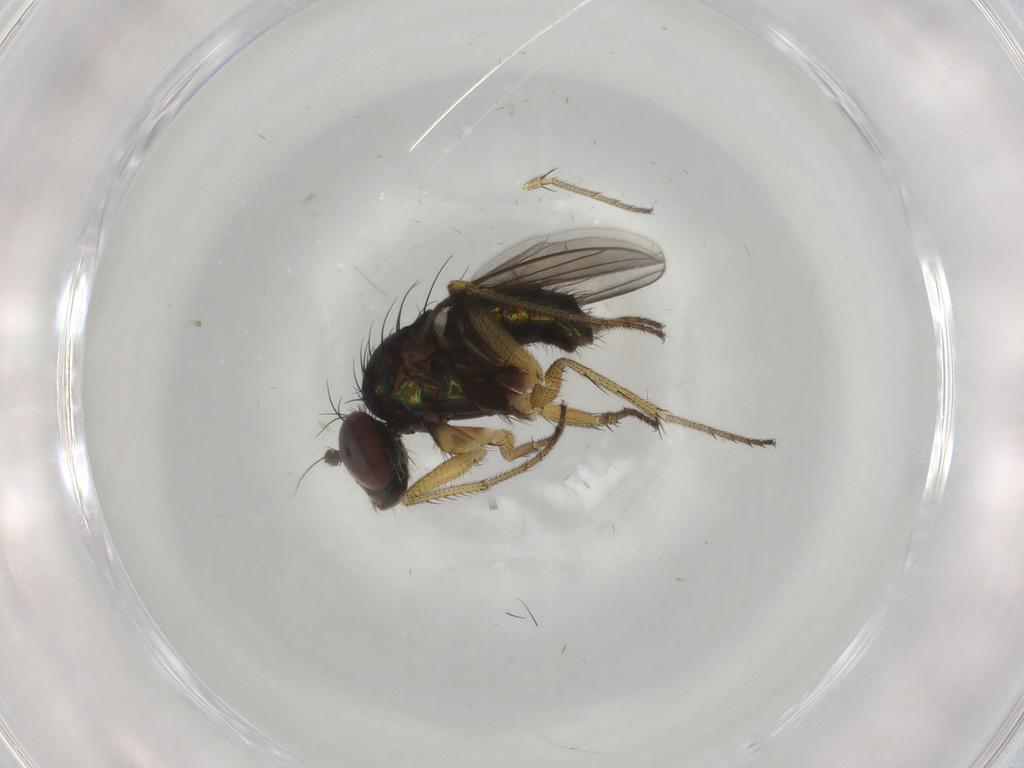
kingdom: Animalia
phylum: Arthropoda
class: Insecta
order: Diptera
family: Dolichopodidae
